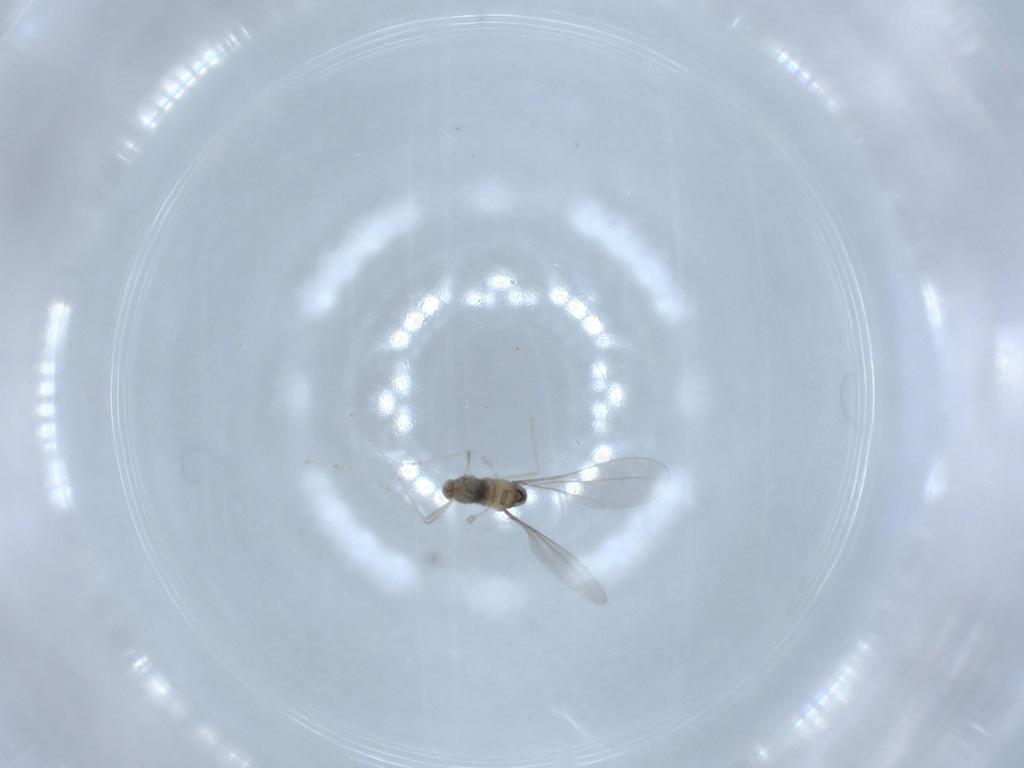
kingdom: Animalia
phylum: Arthropoda
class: Insecta
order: Diptera
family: Cecidomyiidae
